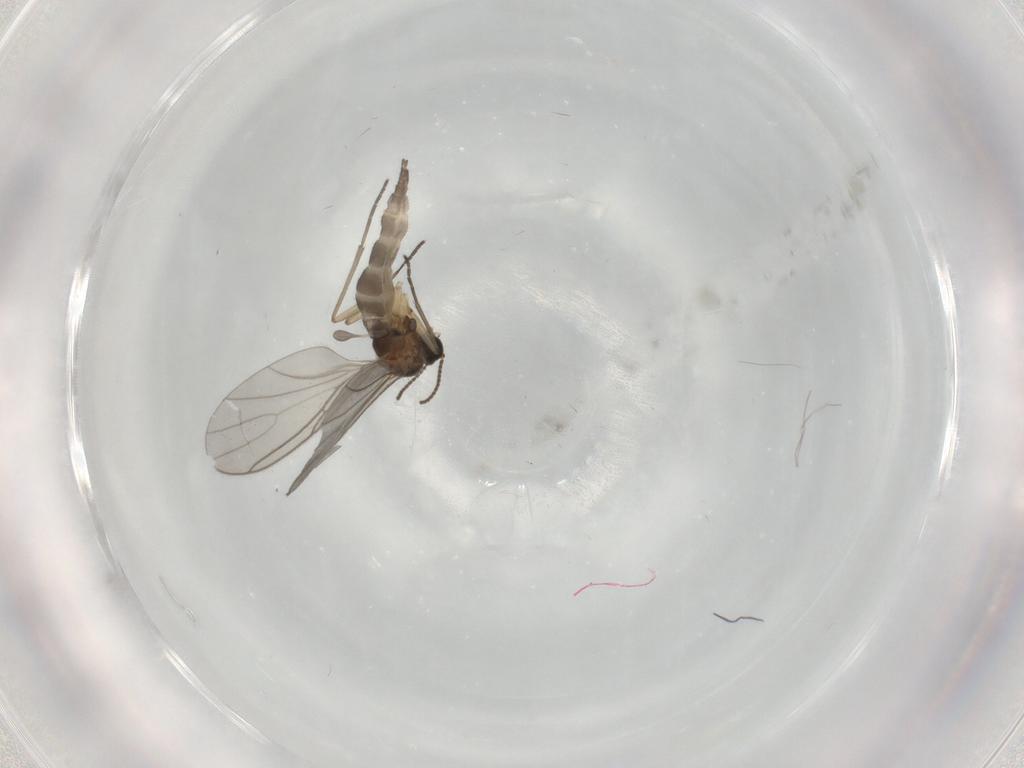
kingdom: Animalia
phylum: Arthropoda
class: Insecta
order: Diptera
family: Sciaridae
